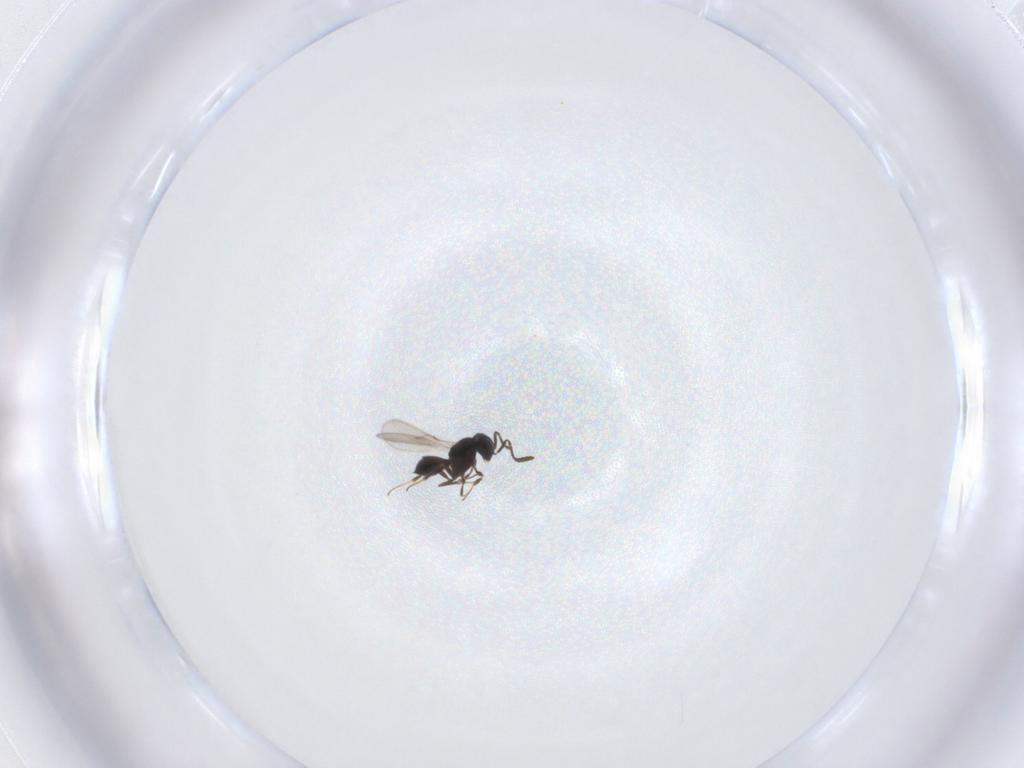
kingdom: Animalia
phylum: Arthropoda
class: Insecta
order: Hymenoptera
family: Scelionidae
